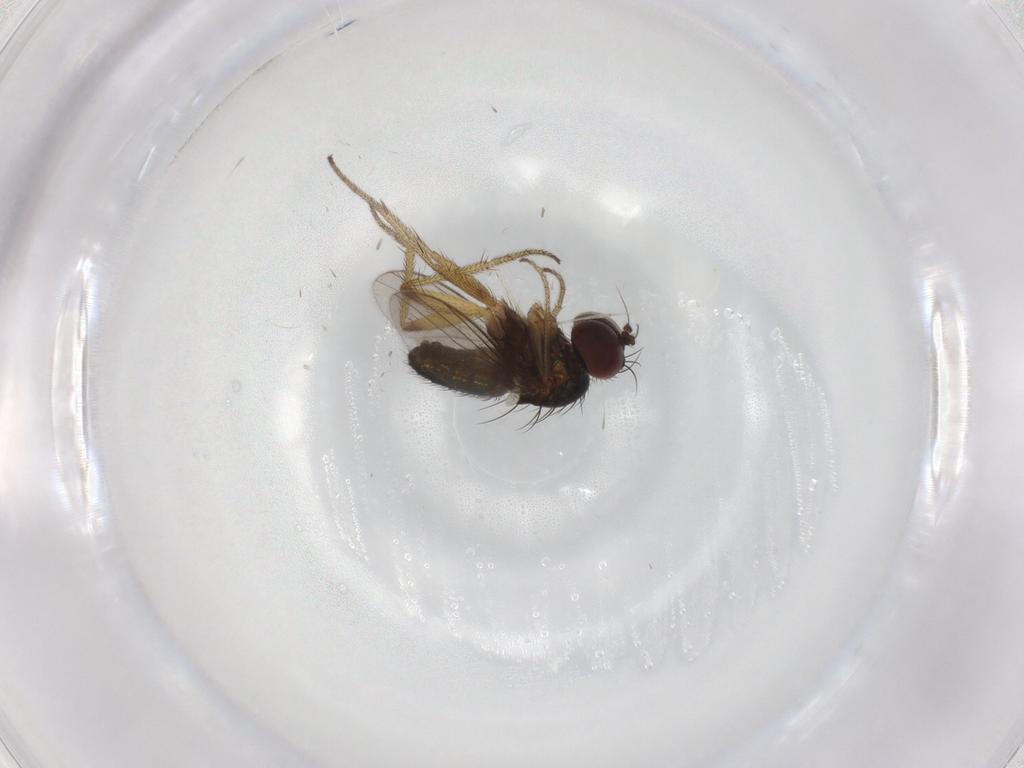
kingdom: Animalia
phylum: Arthropoda
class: Insecta
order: Diptera
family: Dolichopodidae
